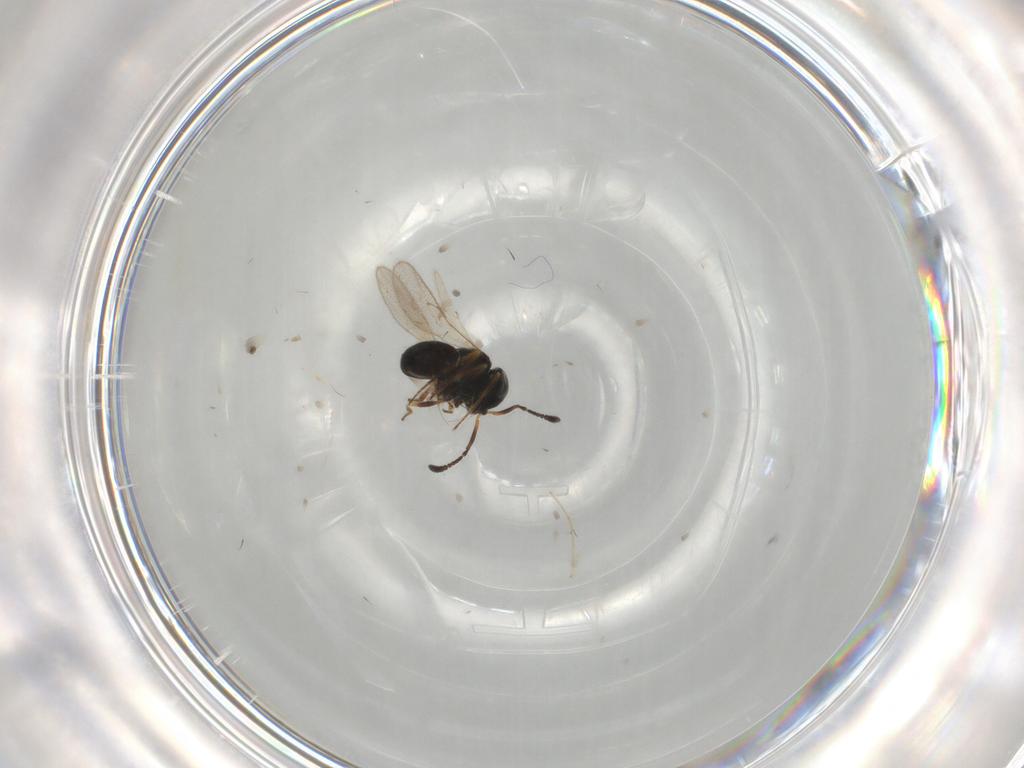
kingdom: Animalia
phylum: Arthropoda
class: Insecta
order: Hymenoptera
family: Scelionidae
